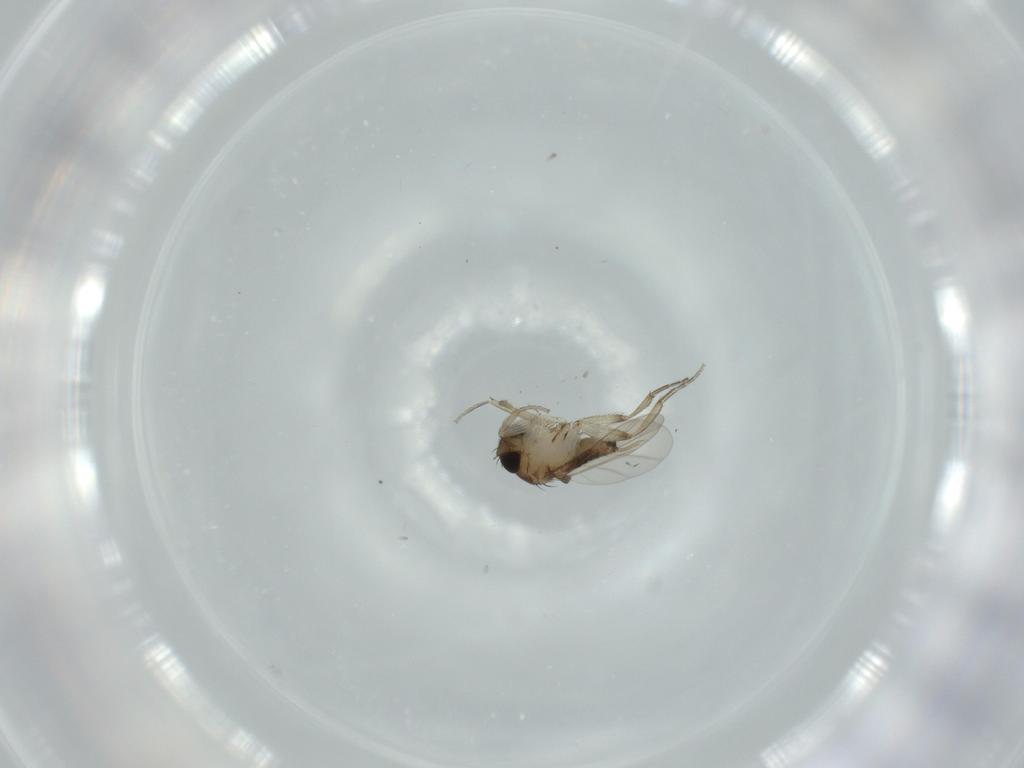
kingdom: Animalia
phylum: Arthropoda
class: Insecta
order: Diptera
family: Phoridae
